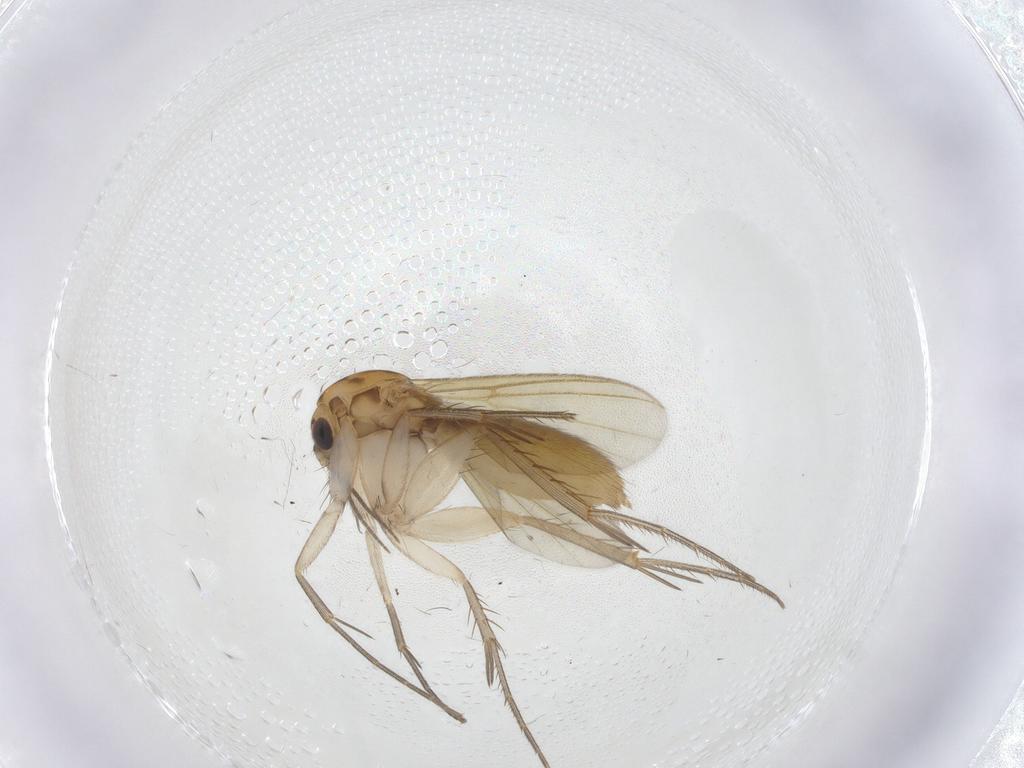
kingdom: Animalia
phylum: Arthropoda
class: Insecta
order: Diptera
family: Mycetophilidae
